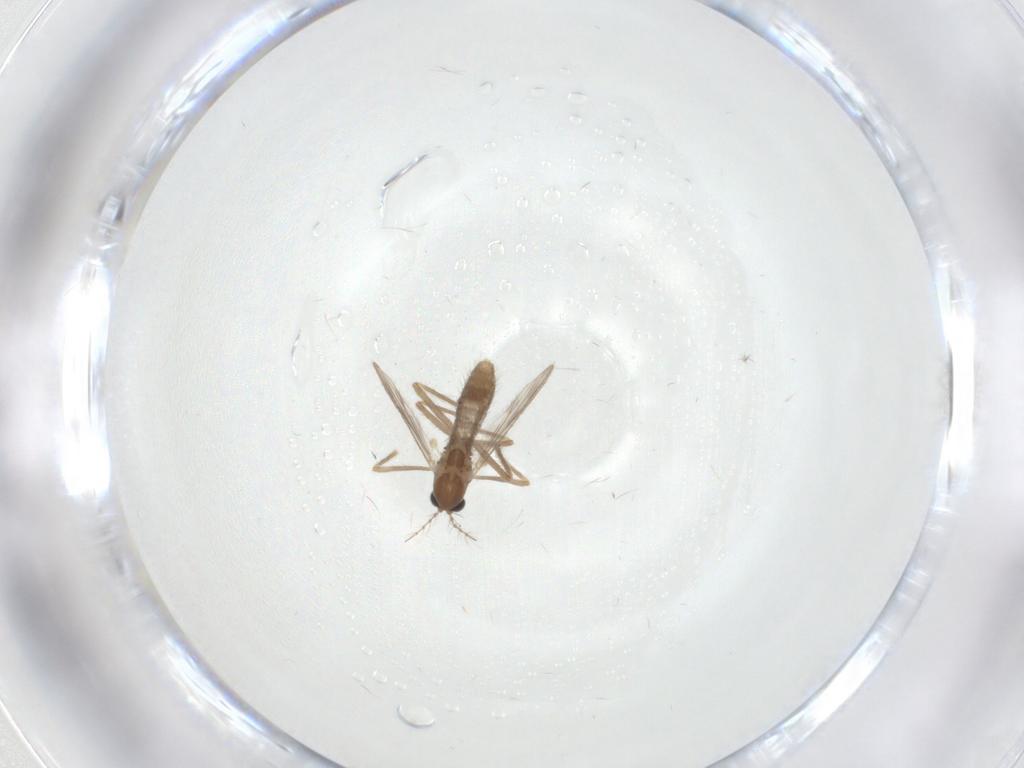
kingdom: Animalia
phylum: Arthropoda
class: Insecta
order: Diptera
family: Chironomidae
